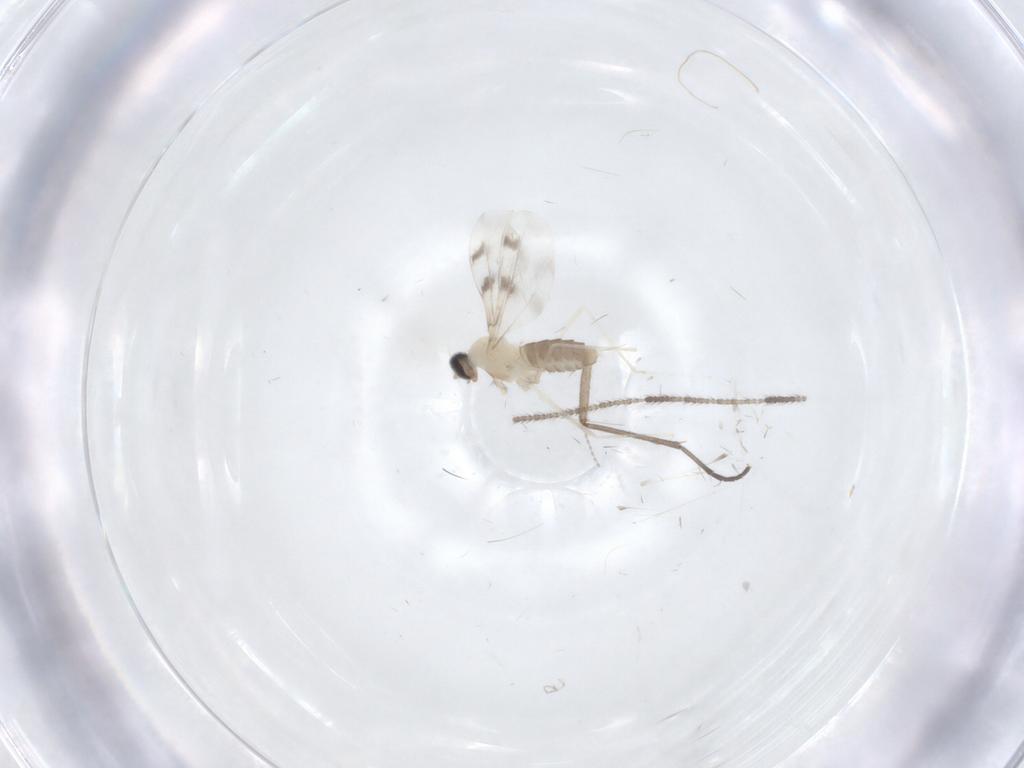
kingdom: Animalia
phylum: Arthropoda
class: Insecta
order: Diptera
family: Cecidomyiidae
